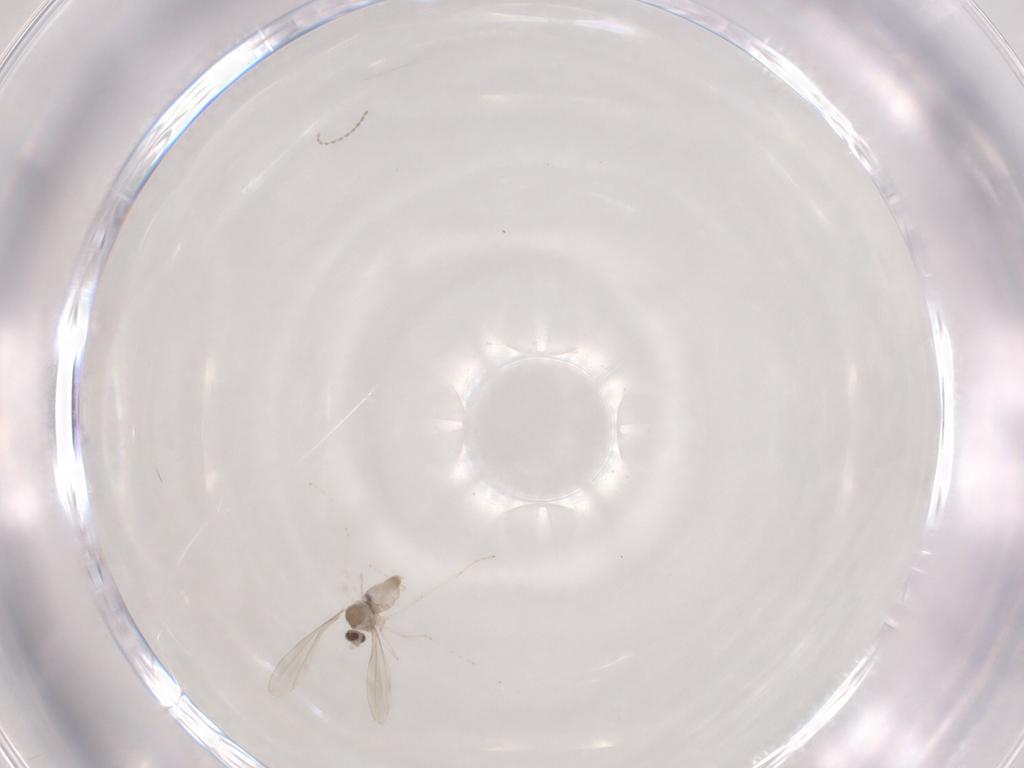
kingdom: Animalia
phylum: Arthropoda
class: Insecta
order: Diptera
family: Cecidomyiidae
